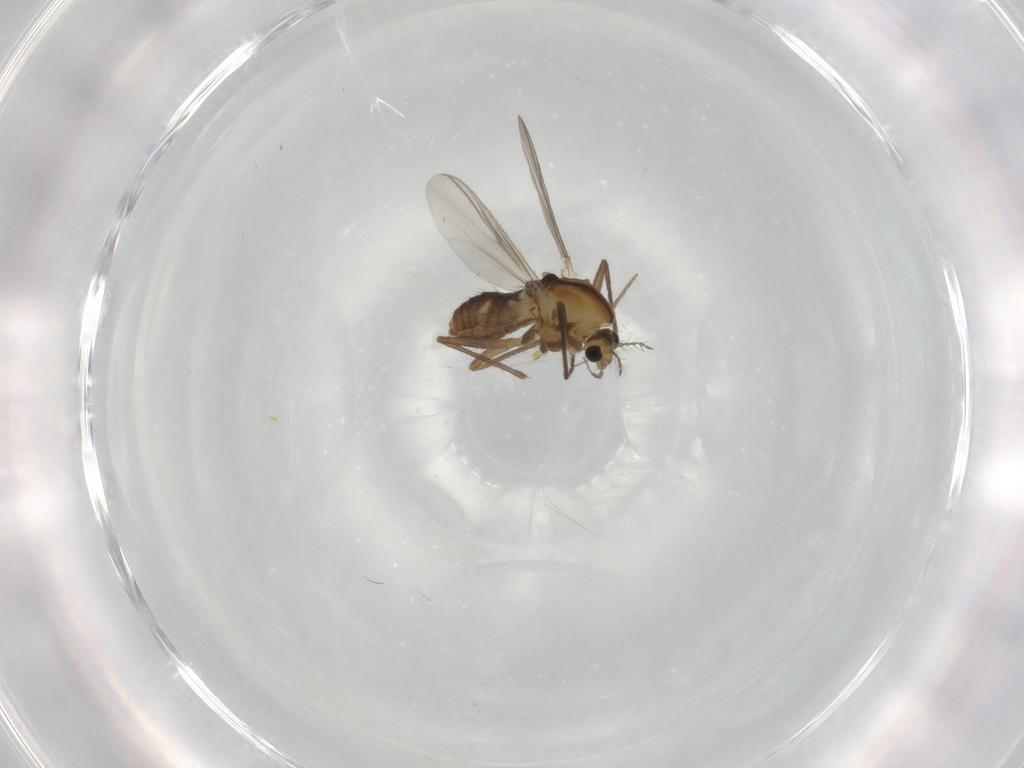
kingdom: Animalia
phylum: Arthropoda
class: Insecta
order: Diptera
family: Chironomidae
